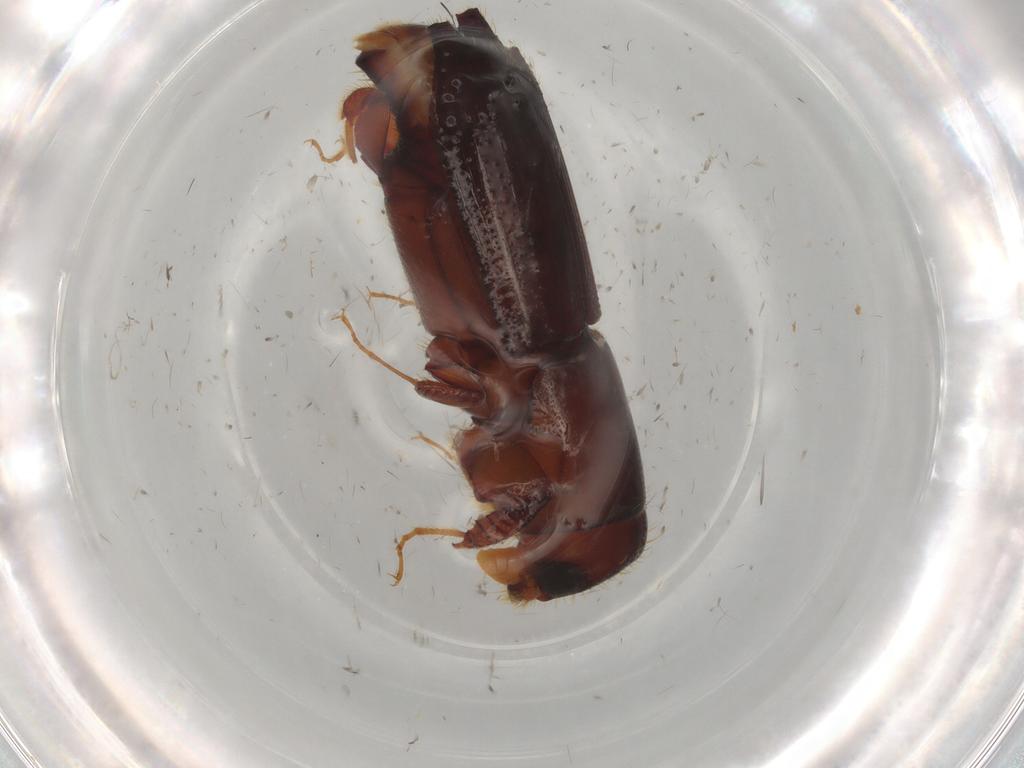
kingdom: Animalia
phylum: Arthropoda
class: Insecta
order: Coleoptera
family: Curculionidae
